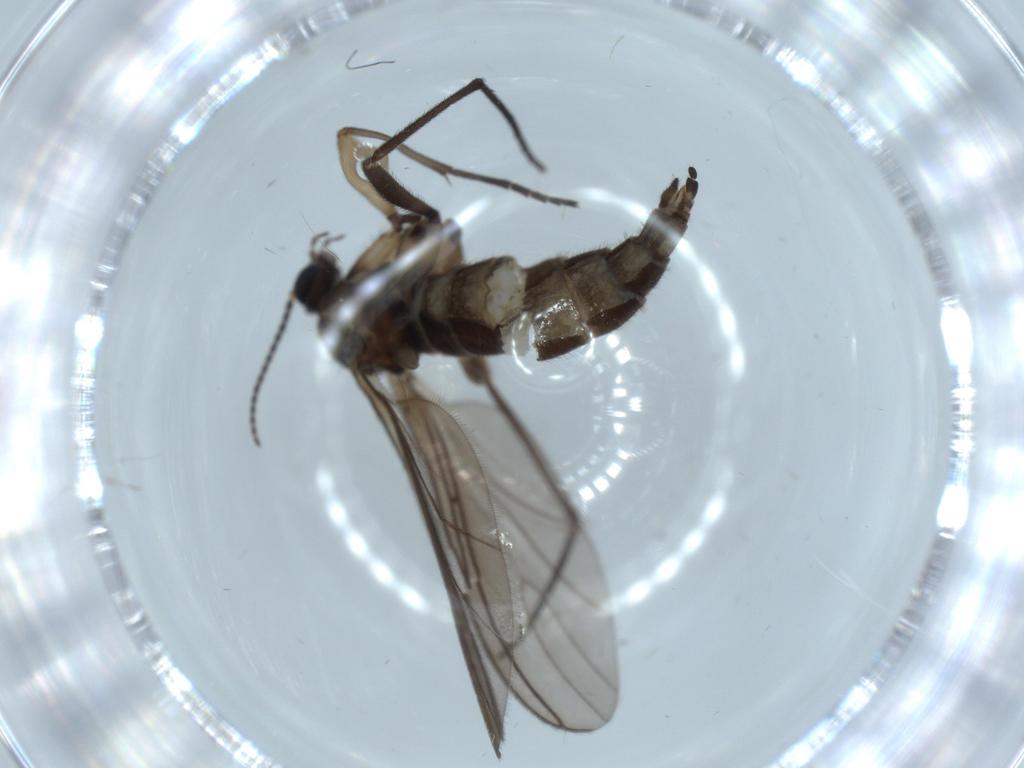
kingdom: Animalia
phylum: Arthropoda
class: Insecta
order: Diptera
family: Sciaridae
